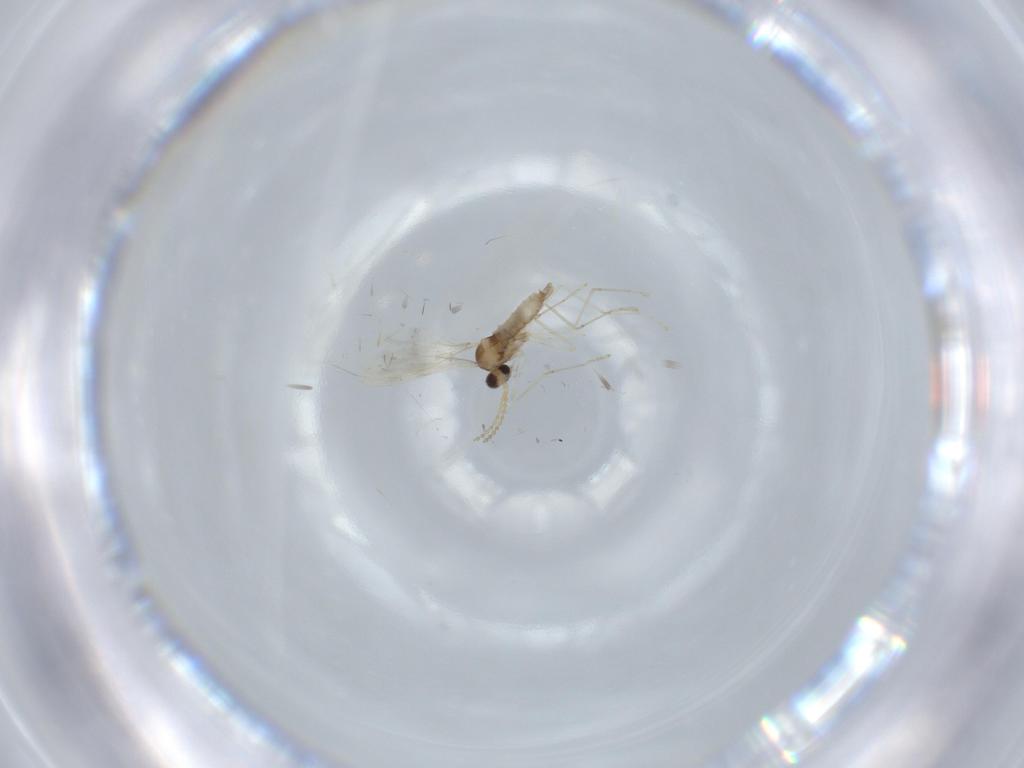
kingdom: Animalia
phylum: Arthropoda
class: Insecta
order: Diptera
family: Cecidomyiidae
